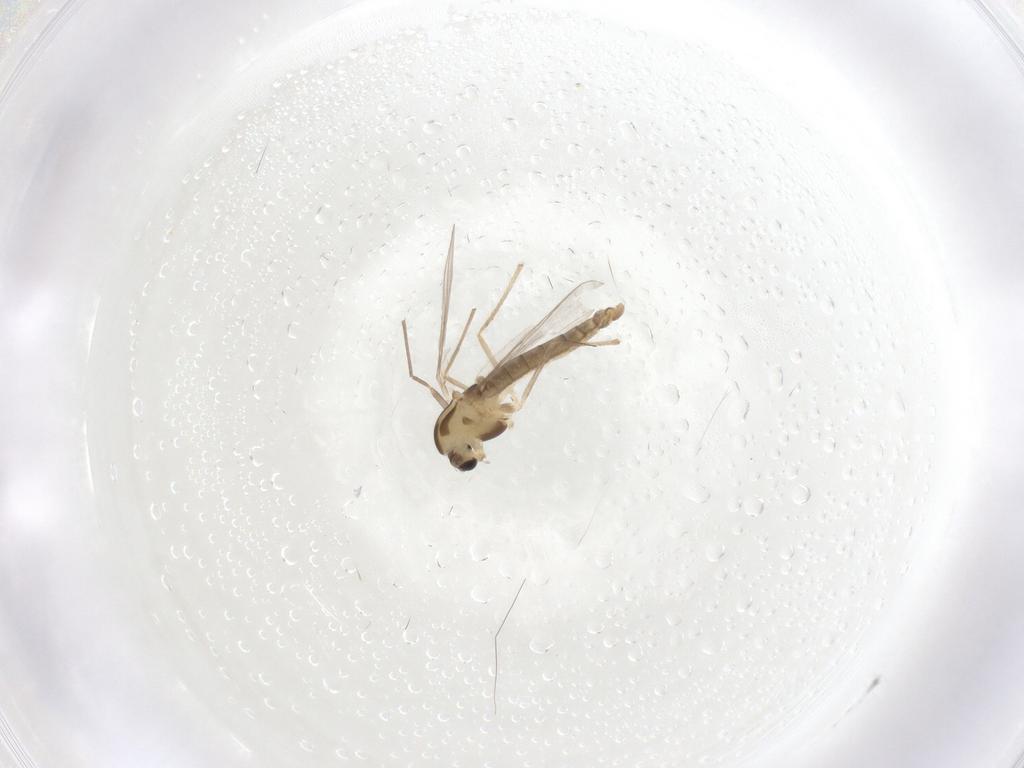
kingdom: Animalia
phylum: Arthropoda
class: Insecta
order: Diptera
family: Chironomidae
